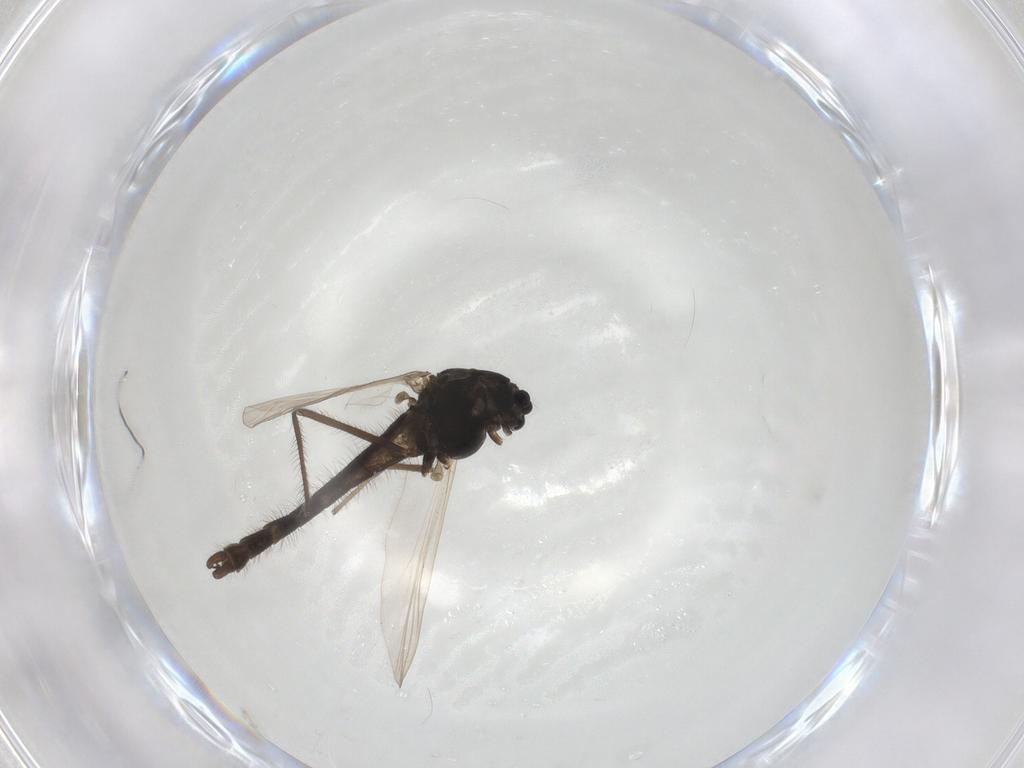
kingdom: Animalia
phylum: Arthropoda
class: Insecta
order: Diptera
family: Chironomidae
